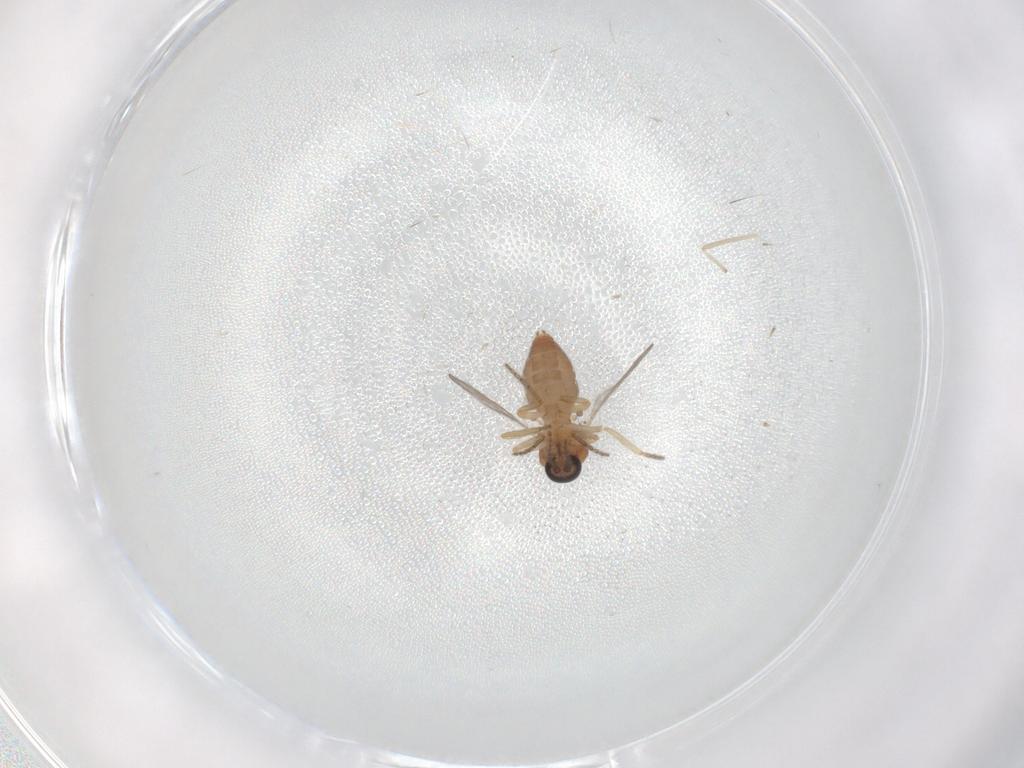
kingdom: Animalia
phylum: Arthropoda
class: Insecta
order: Diptera
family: Ceratopogonidae
